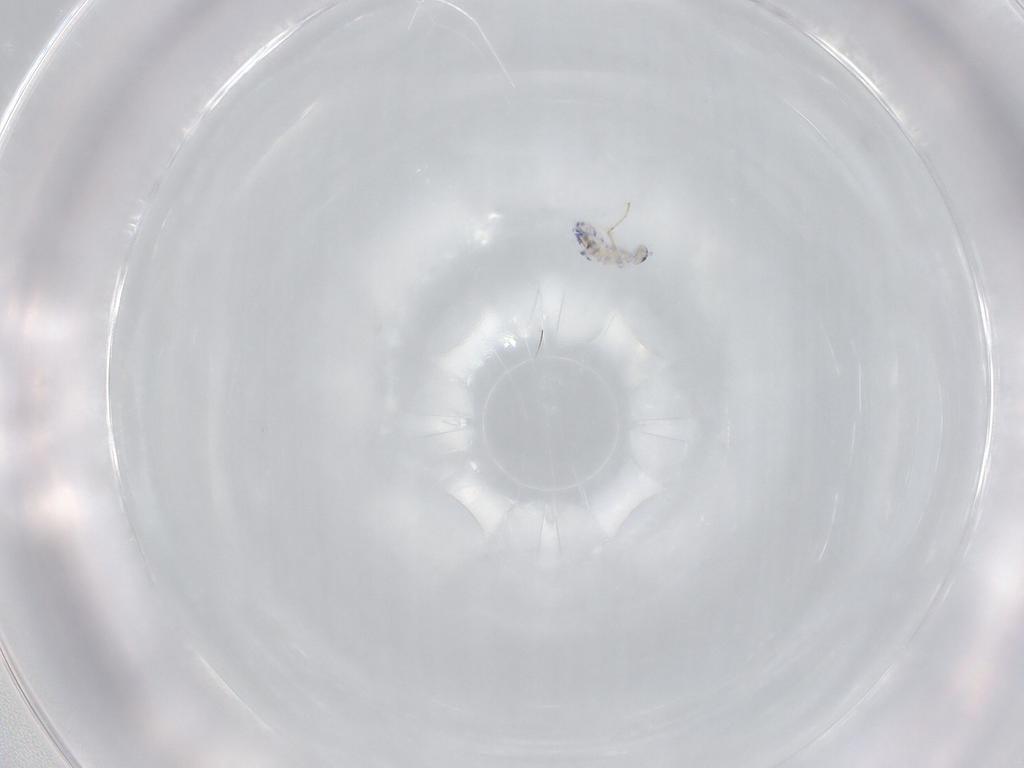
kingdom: Animalia
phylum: Arthropoda
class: Collembola
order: Entomobryomorpha
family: Entomobryidae
